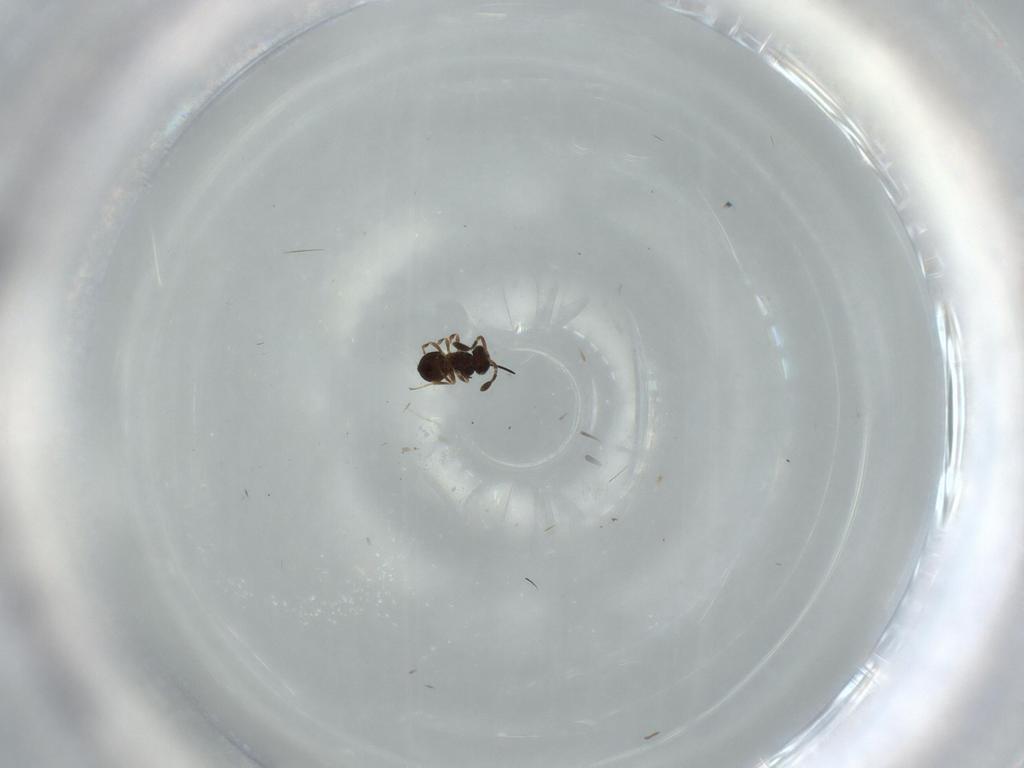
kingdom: Animalia
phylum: Arthropoda
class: Insecta
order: Hymenoptera
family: Scelionidae
